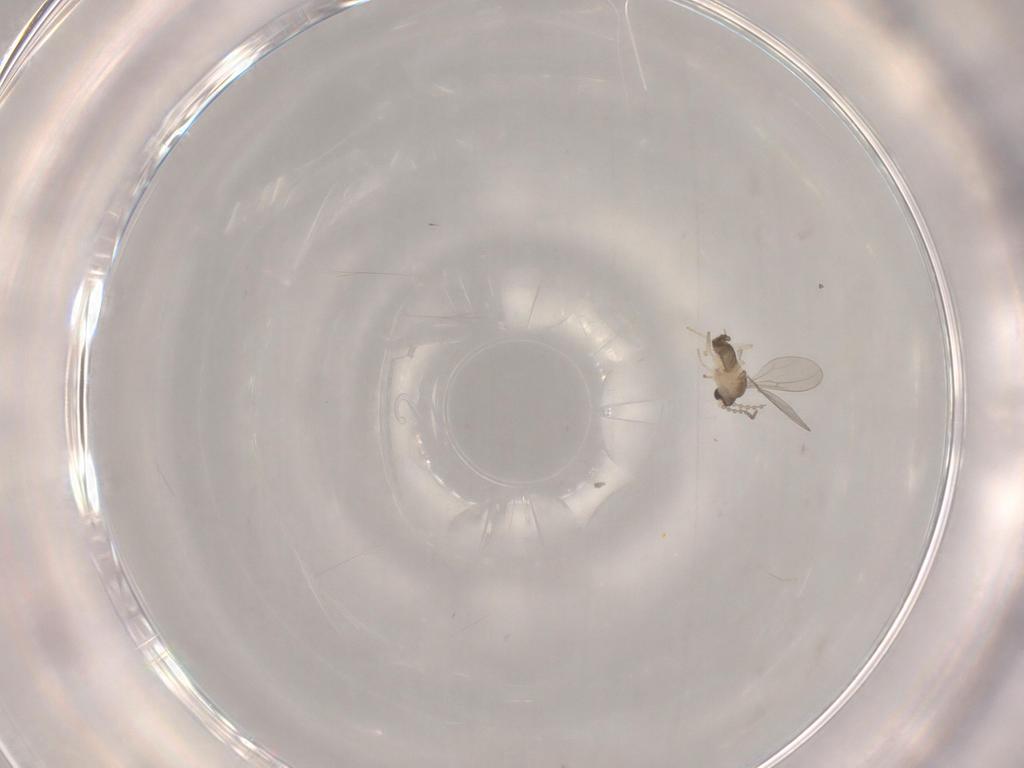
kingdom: Animalia
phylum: Arthropoda
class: Insecta
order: Diptera
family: Cecidomyiidae
